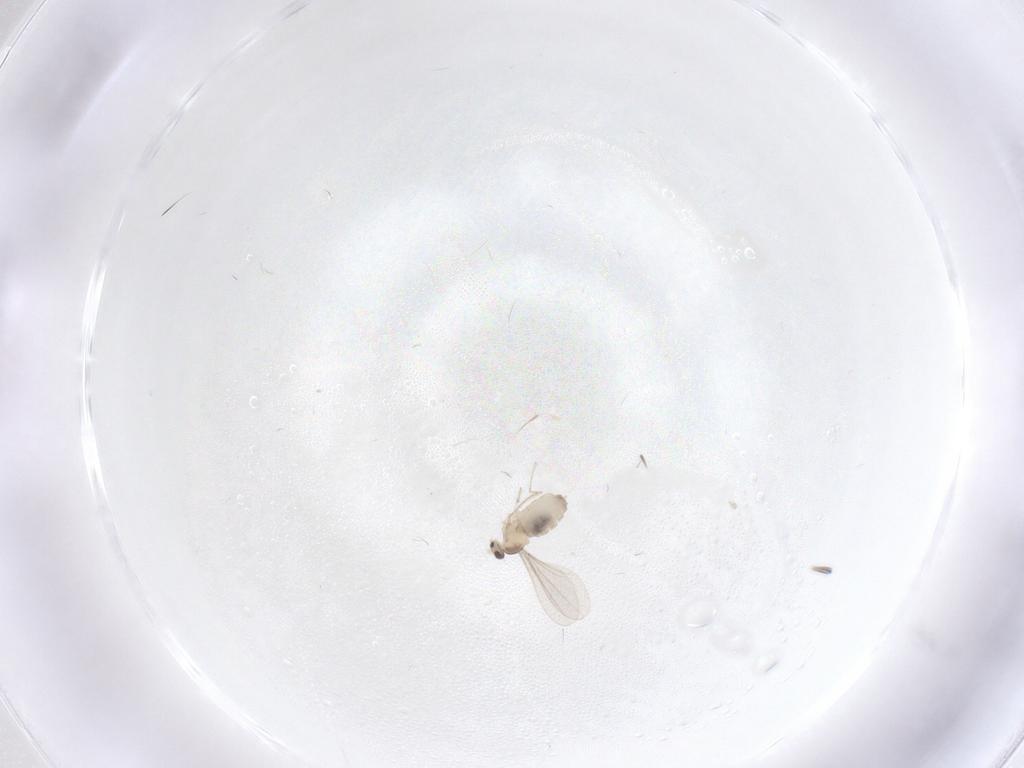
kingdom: Animalia
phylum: Arthropoda
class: Insecta
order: Diptera
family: Cecidomyiidae
